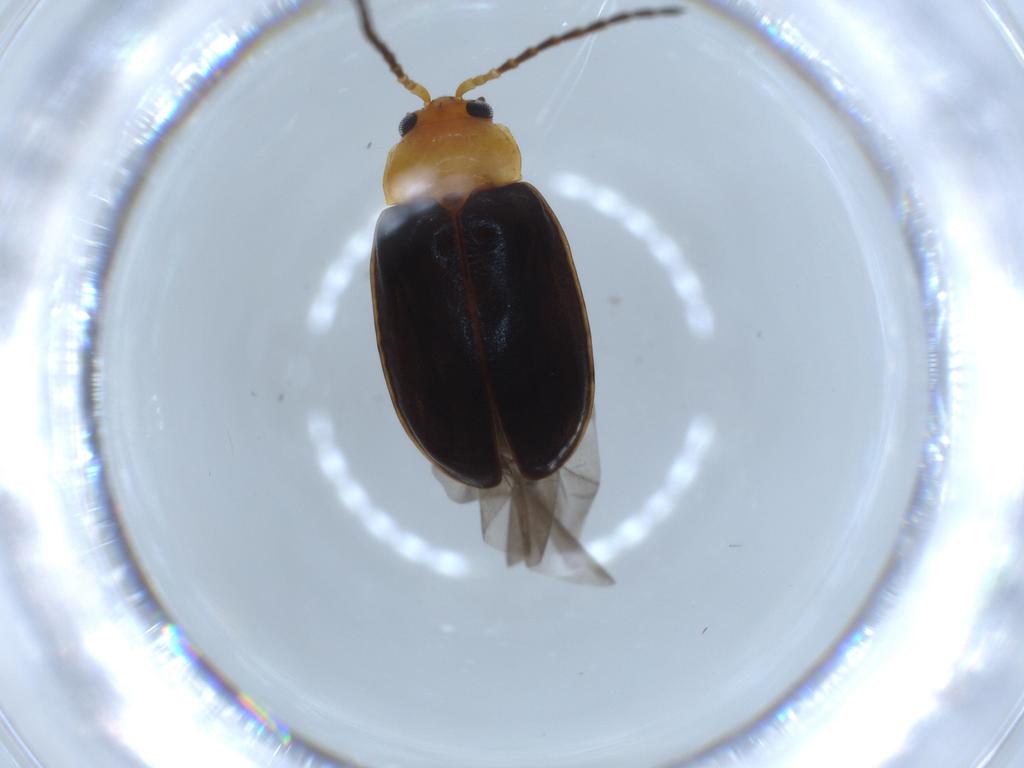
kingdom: Animalia
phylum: Arthropoda
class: Insecta
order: Coleoptera
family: Chrysomelidae
